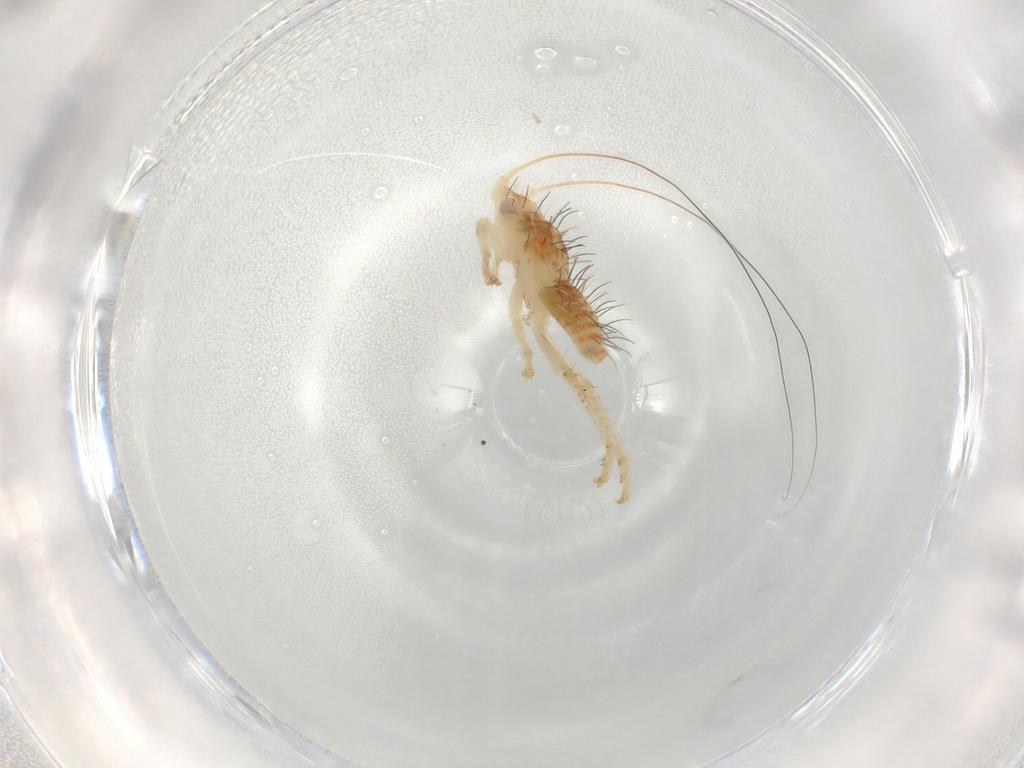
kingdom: Animalia
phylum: Arthropoda
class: Insecta
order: Hemiptera
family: Cicadellidae
